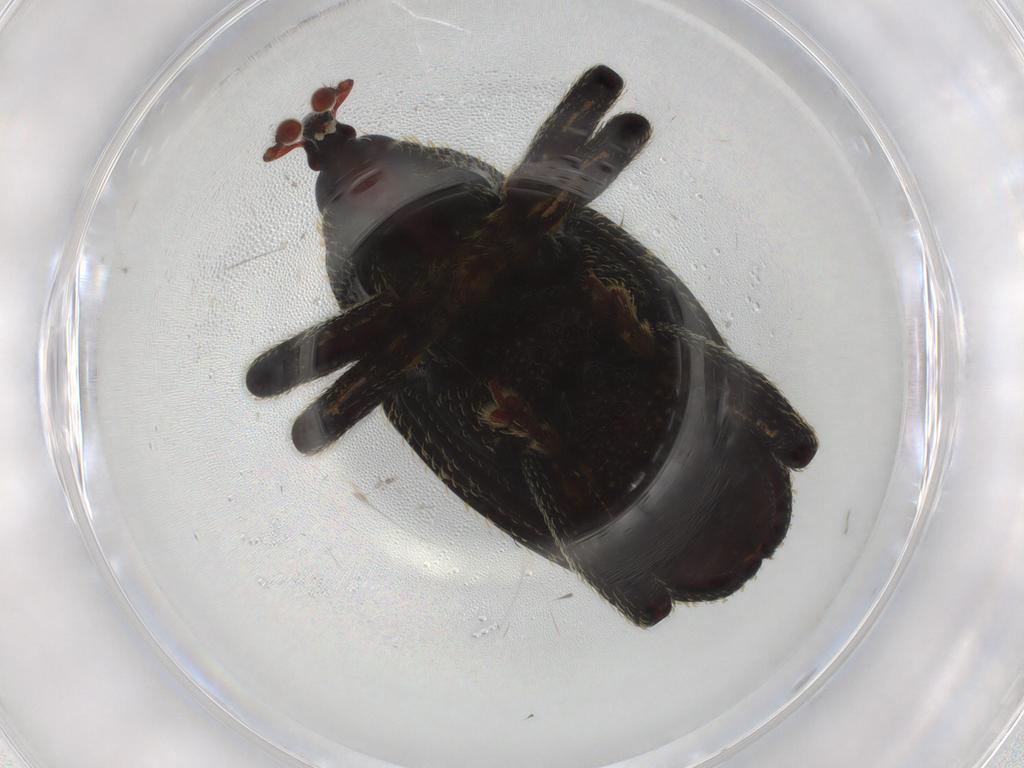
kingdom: Animalia
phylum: Arthropoda
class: Insecta
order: Coleoptera
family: Curculionidae
